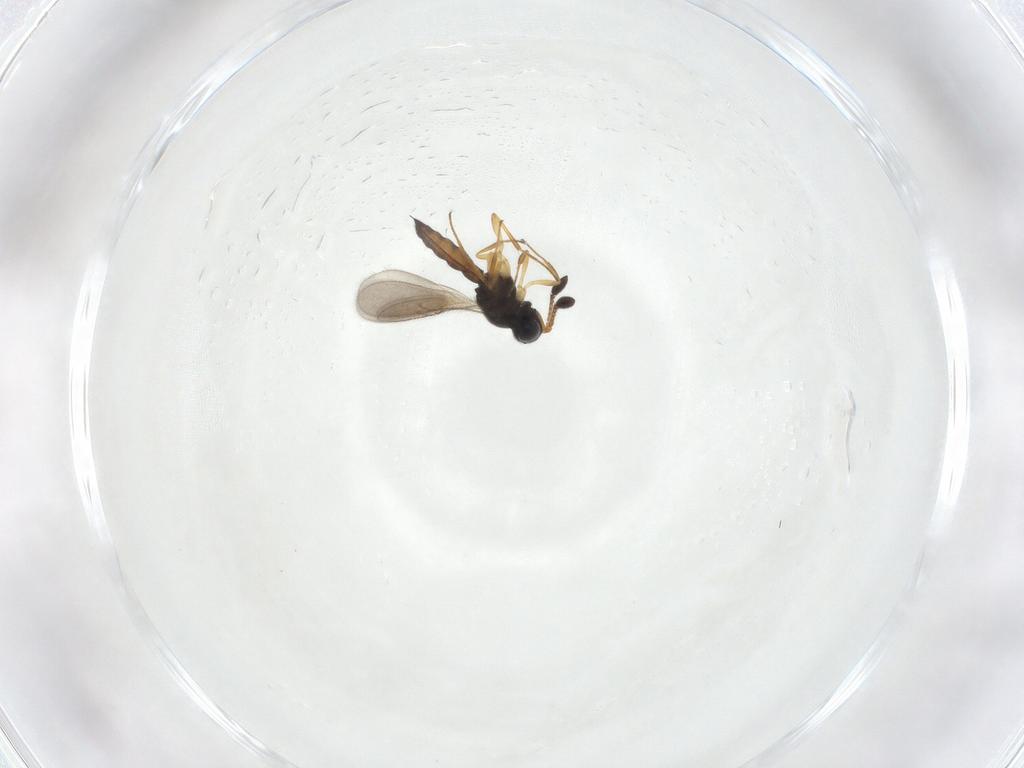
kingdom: Animalia
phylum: Arthropoda
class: Insecta
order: Hymenoptera
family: Scelionidae
